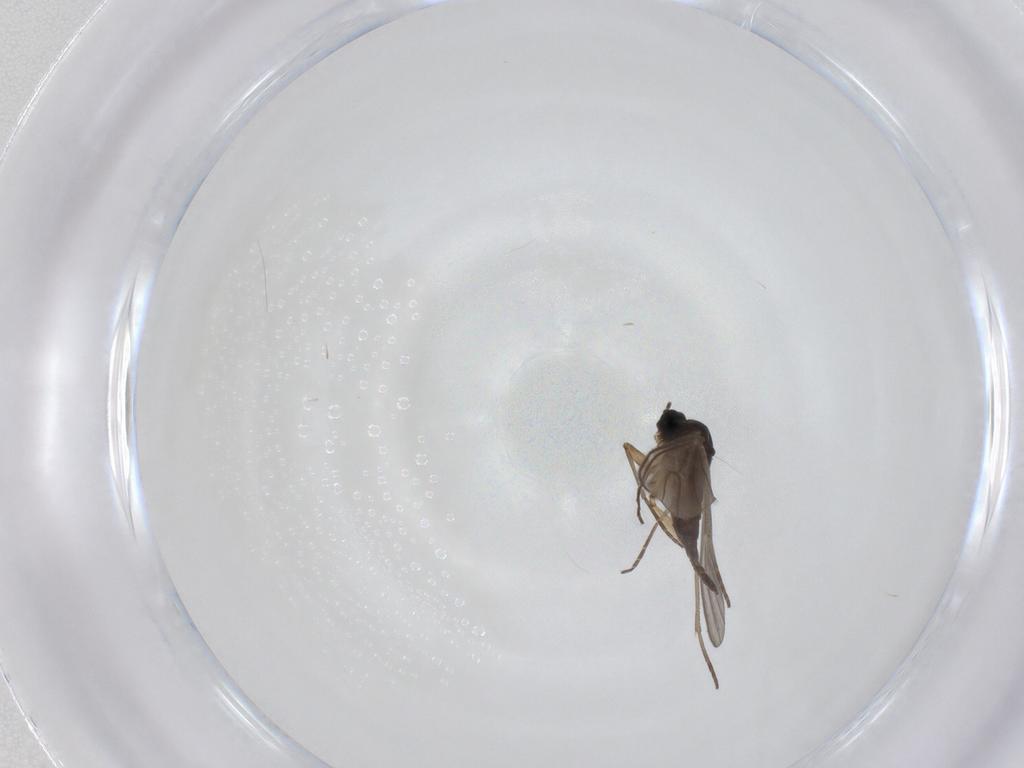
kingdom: Animalia
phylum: Arthropoda
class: Insecta
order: Diptera
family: Sciaridae
